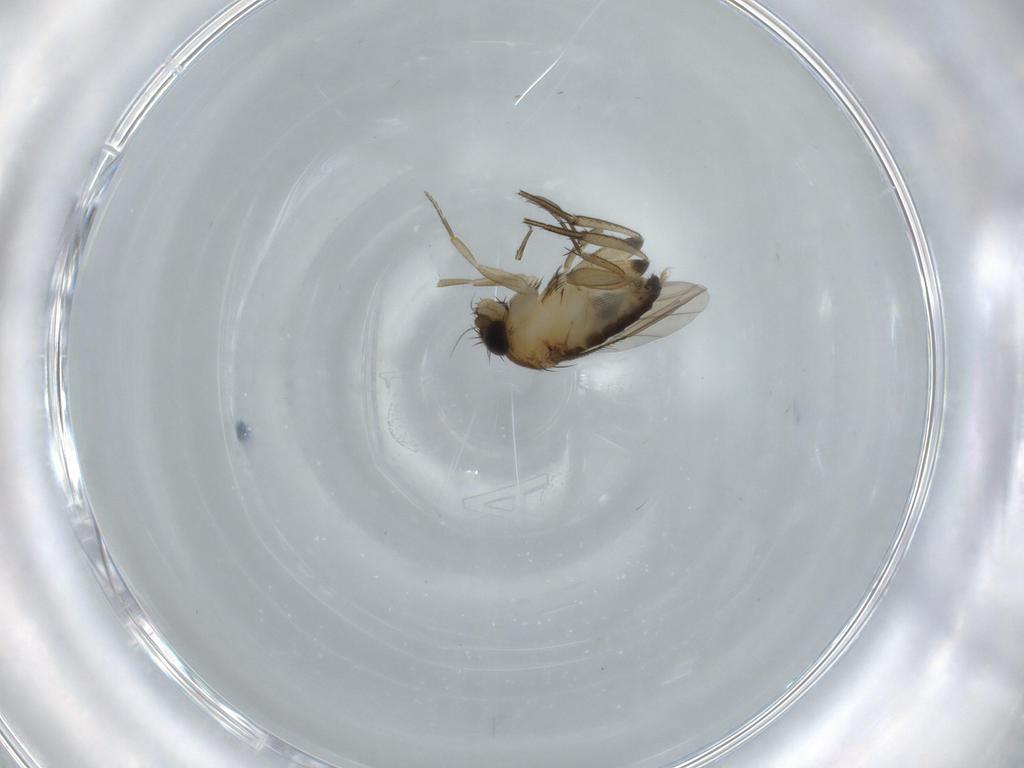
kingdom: Animalia
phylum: Arthropoda
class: Insecta
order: Diptera
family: Phoridae
